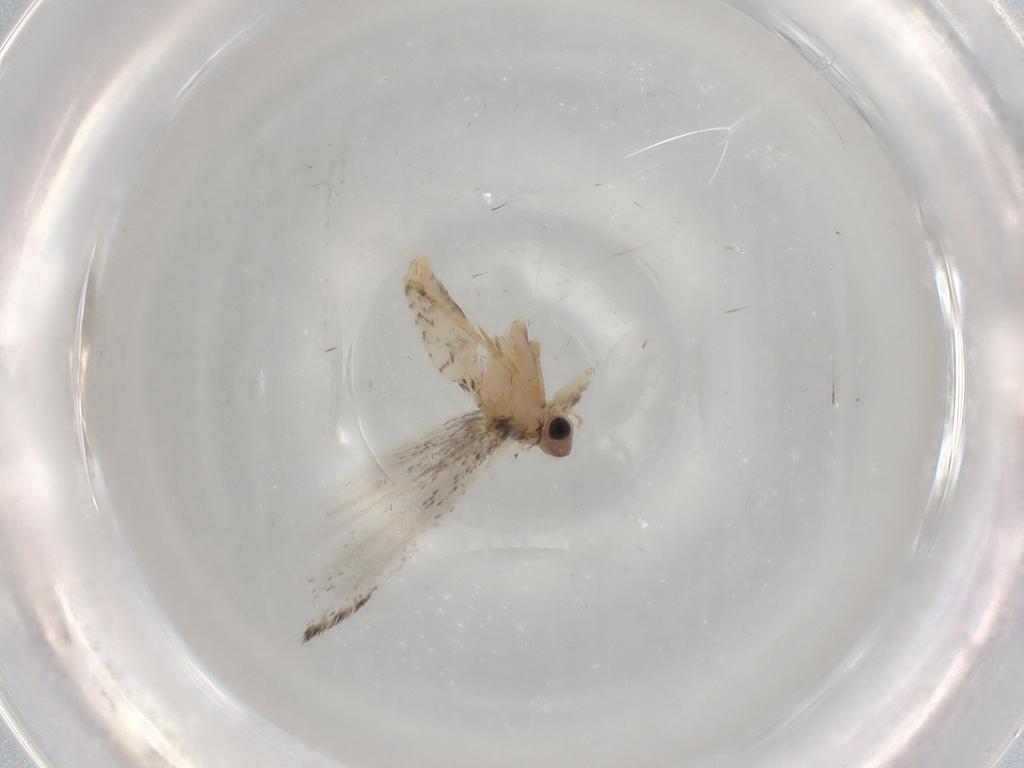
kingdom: Animalia
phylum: Arthropoda
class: Insecta
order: Lepidoptera
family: Tineidae
